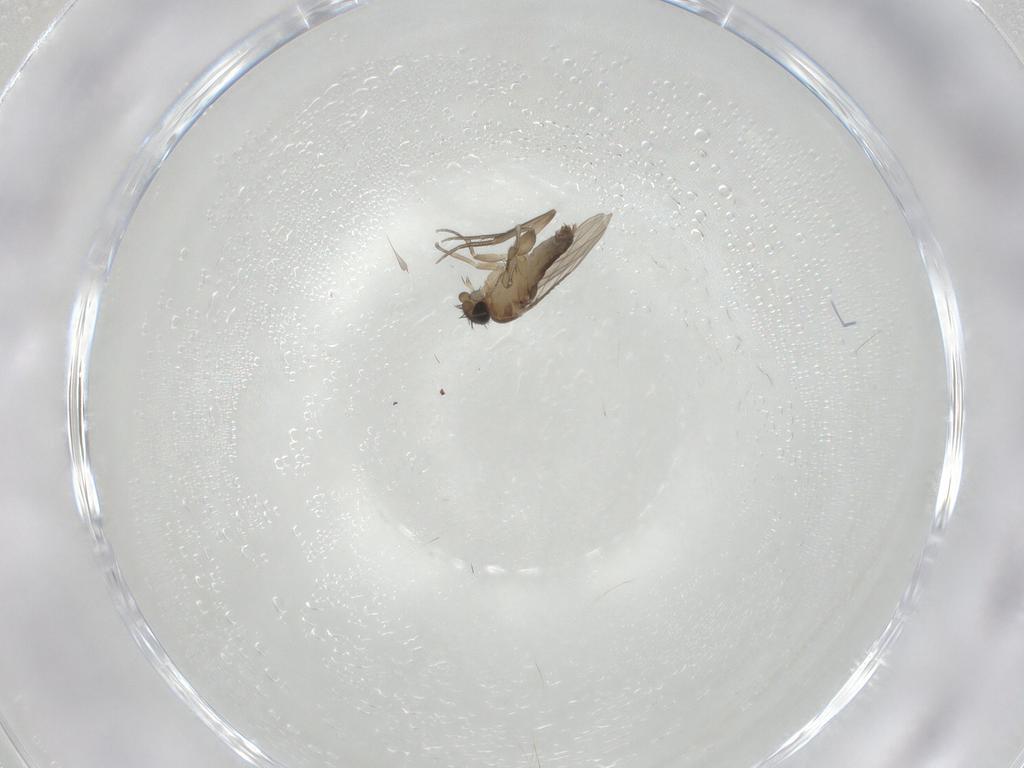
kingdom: Animalia
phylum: Arthropoda
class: Insecta
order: Diptera
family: Phoridae
